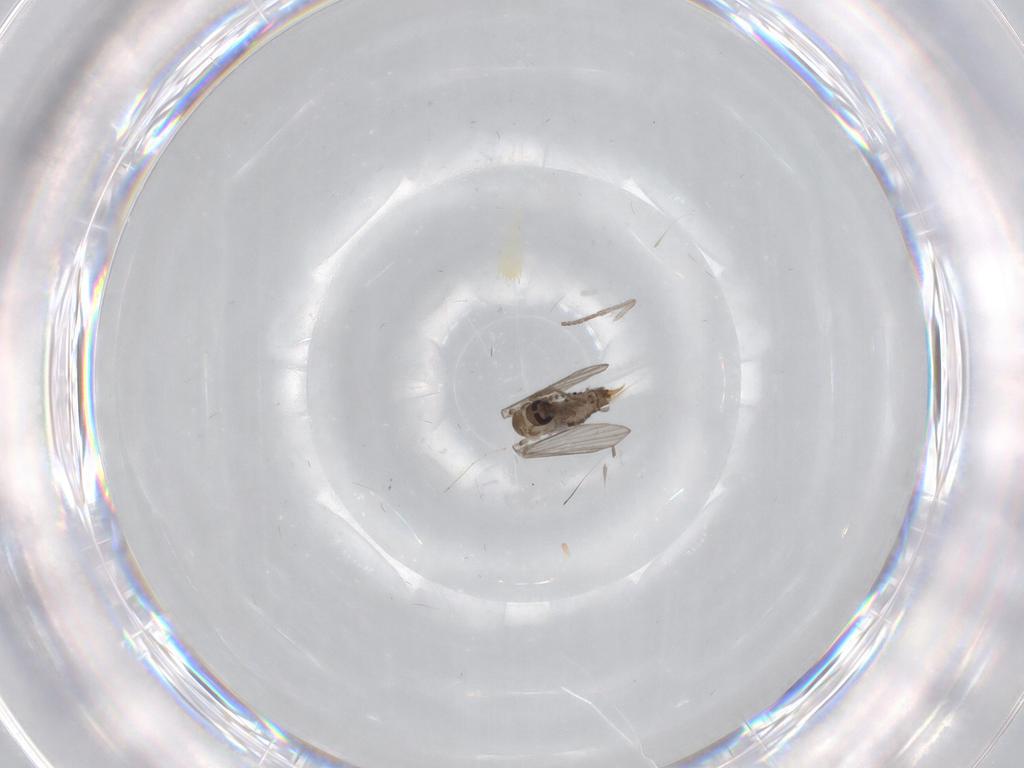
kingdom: Animalia
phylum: Arthropoda
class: Insecta
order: Diptera
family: Psychodidae
